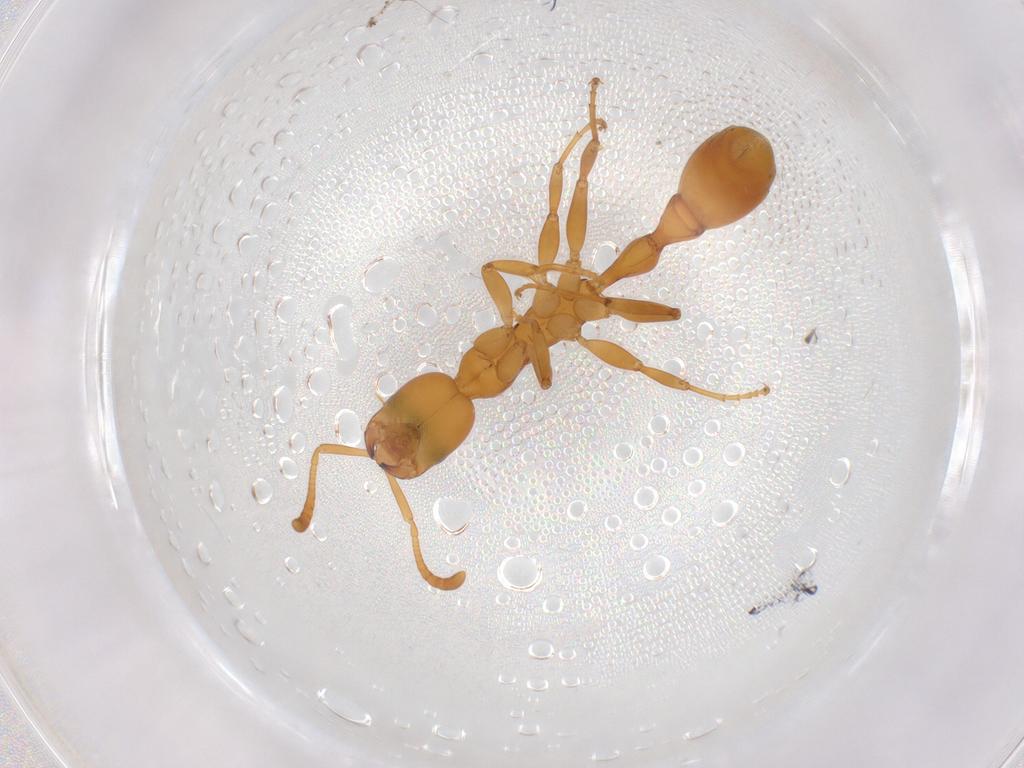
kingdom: Animalia
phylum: Arthropoda
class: Insecta
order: Hymenoptera
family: Formicidae
